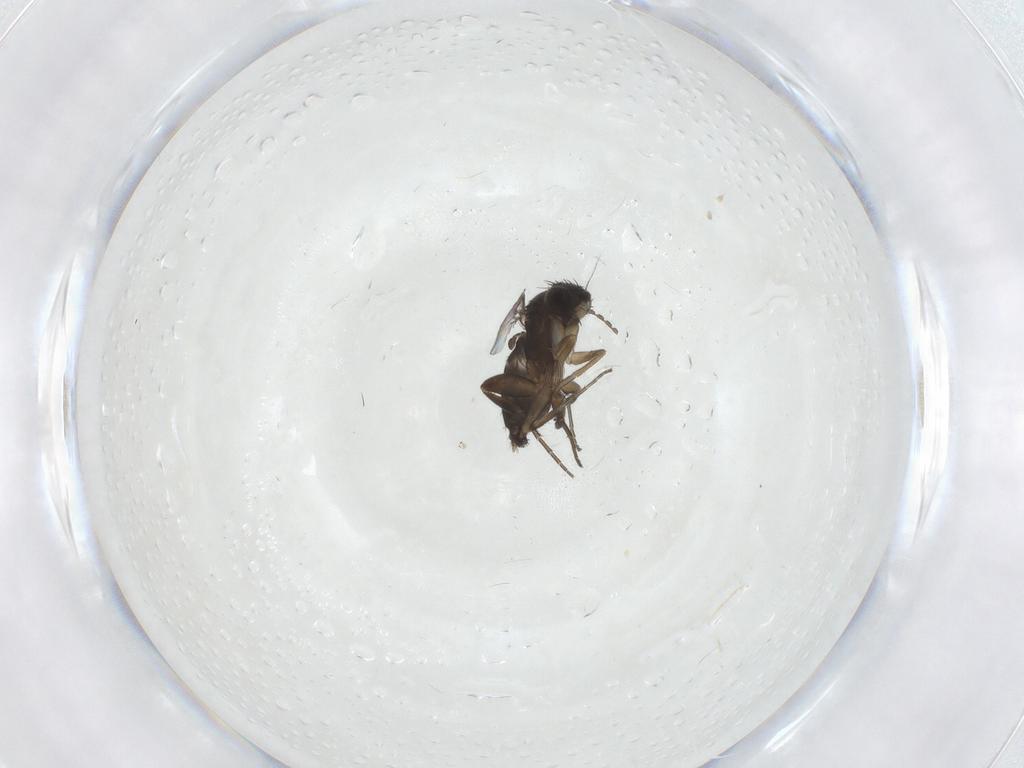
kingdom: Animalia
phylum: Arthropoda
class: Insecta
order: Diptera
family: Phoridae
